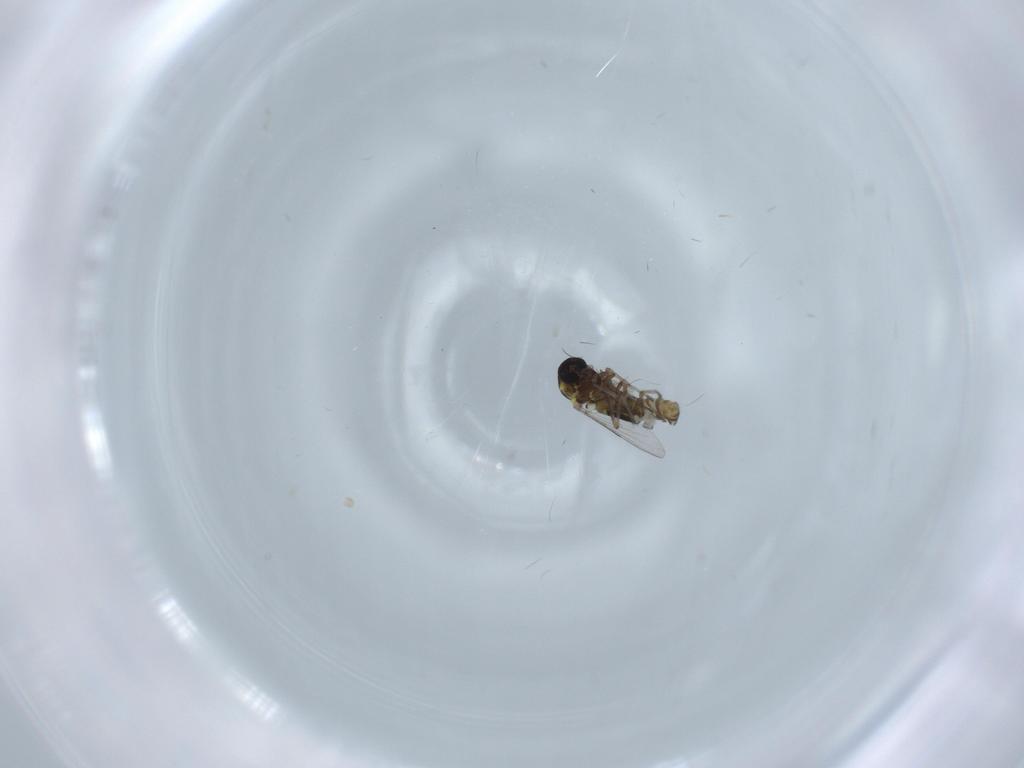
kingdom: Animalia
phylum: Arthropoda
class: Insecta
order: Diptera
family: Ceratopogonidae
